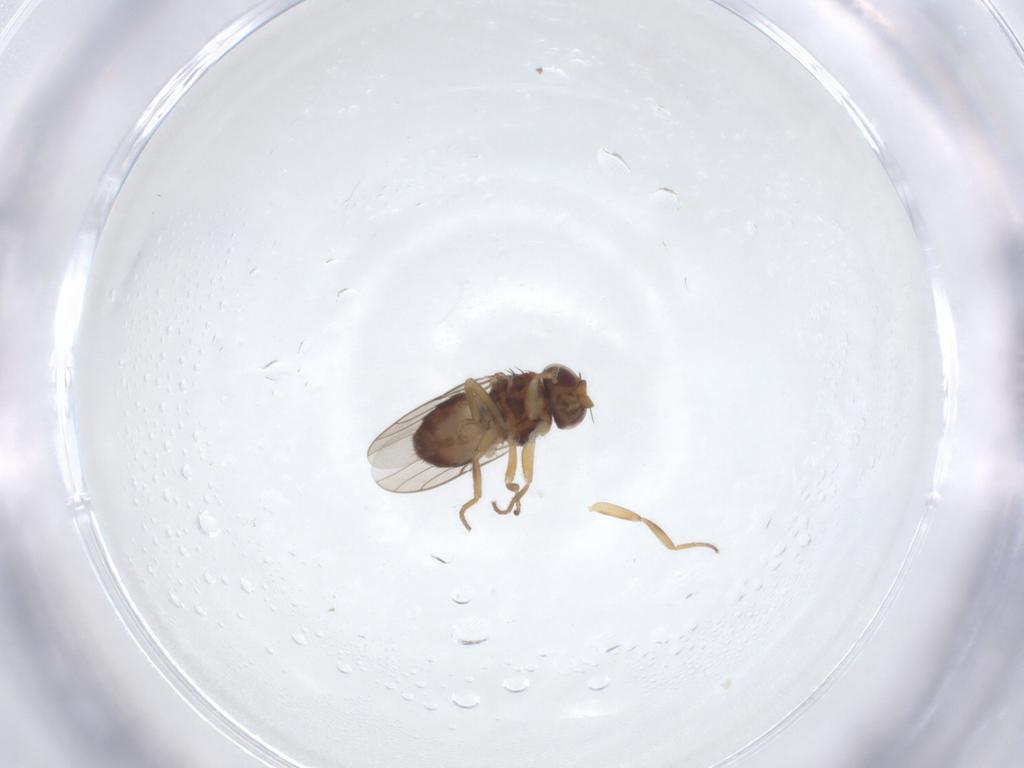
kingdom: Animalia
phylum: Arthropoda
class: Insecta
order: Diptera
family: Chloropidae
